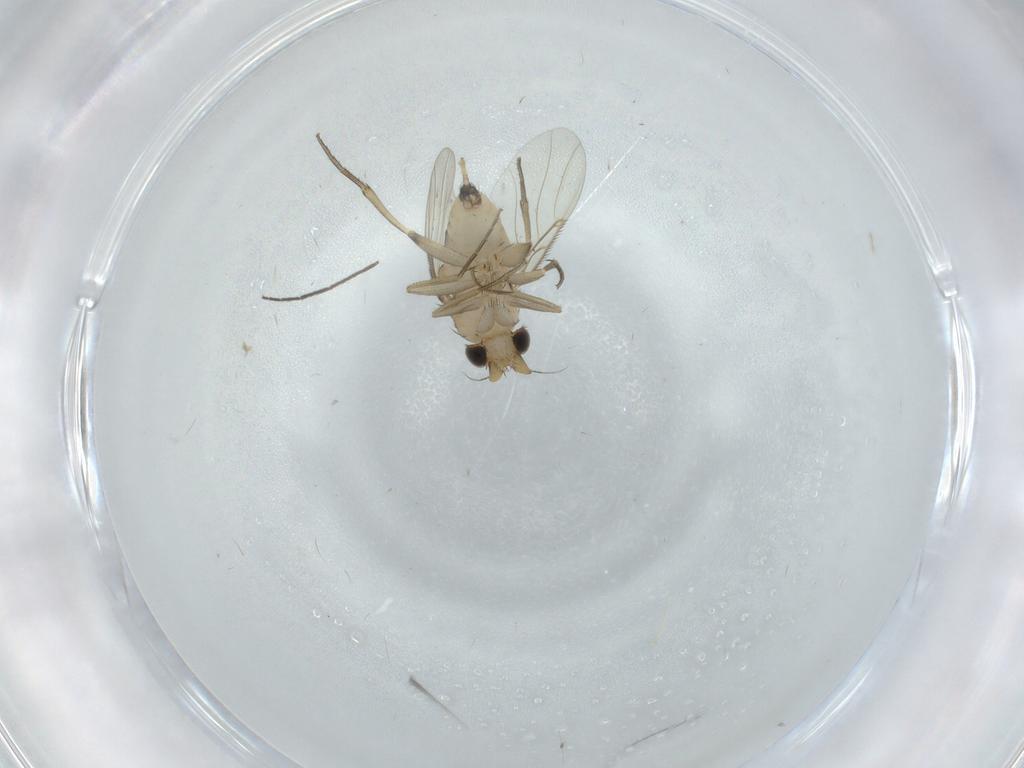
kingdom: Animalia
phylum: Arthropoda
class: Insecta
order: Diptera
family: Phoridae
